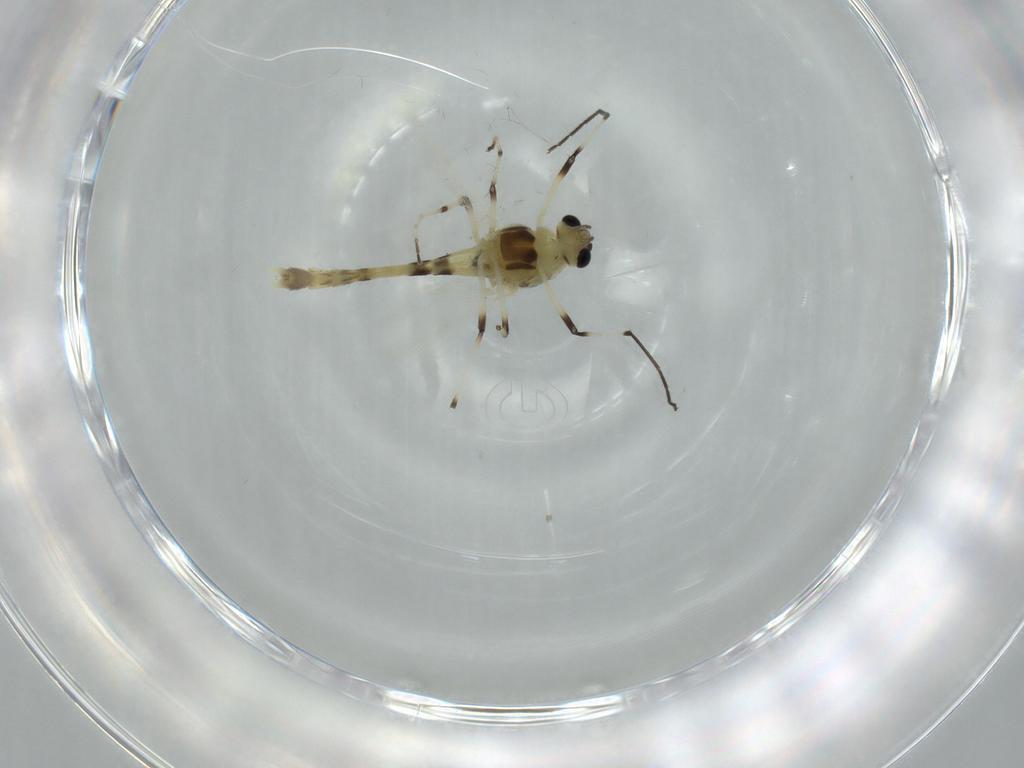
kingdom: Animalia
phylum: Arthropoda
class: Insecta
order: Diptera
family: Chironomidae
